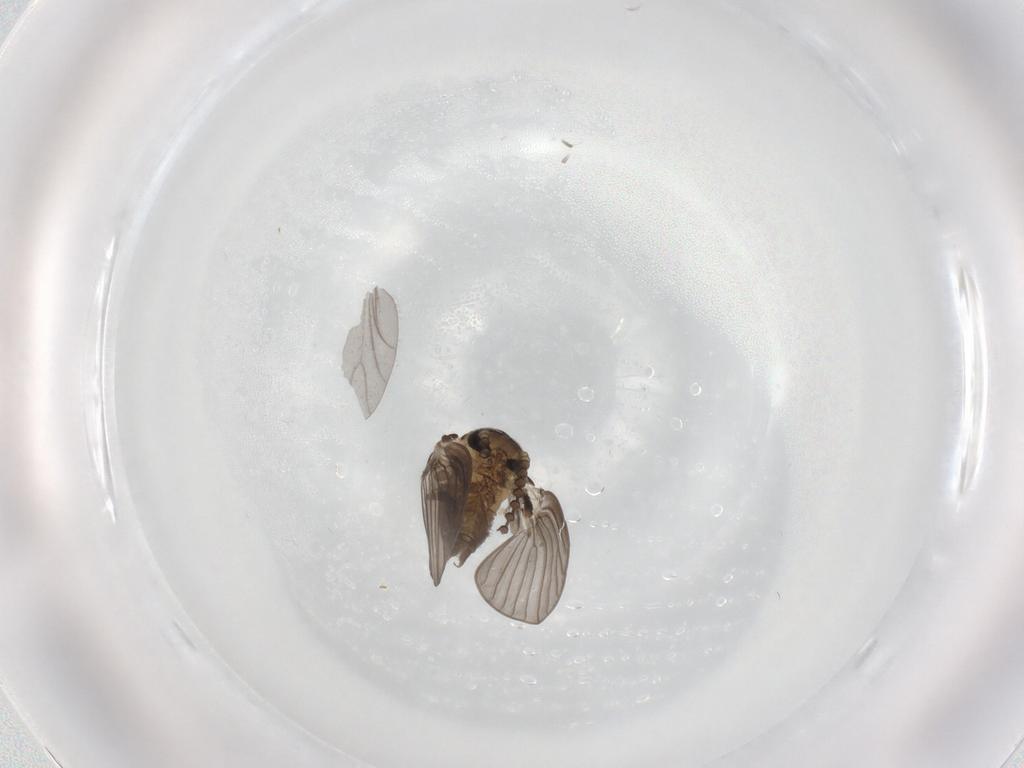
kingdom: Animalia
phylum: Arthropoda
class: Insecta
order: Diptera
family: Psychodidae
